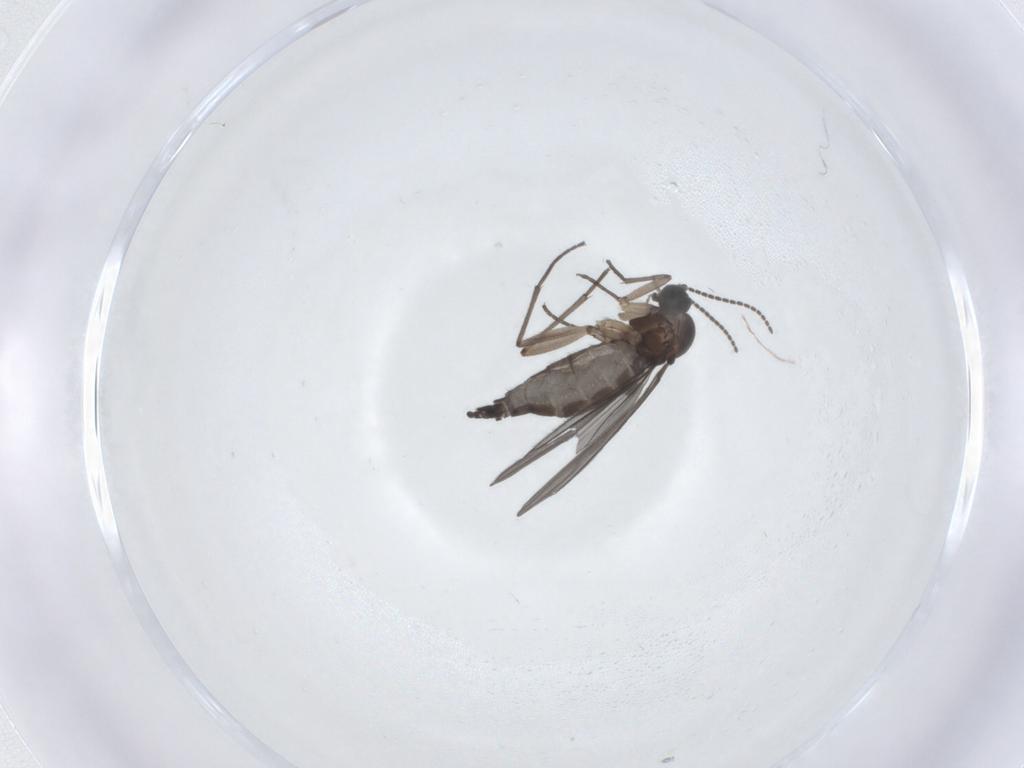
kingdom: Animalia
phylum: Arthropoda
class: Insecta
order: Diptera
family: Sciaridae
